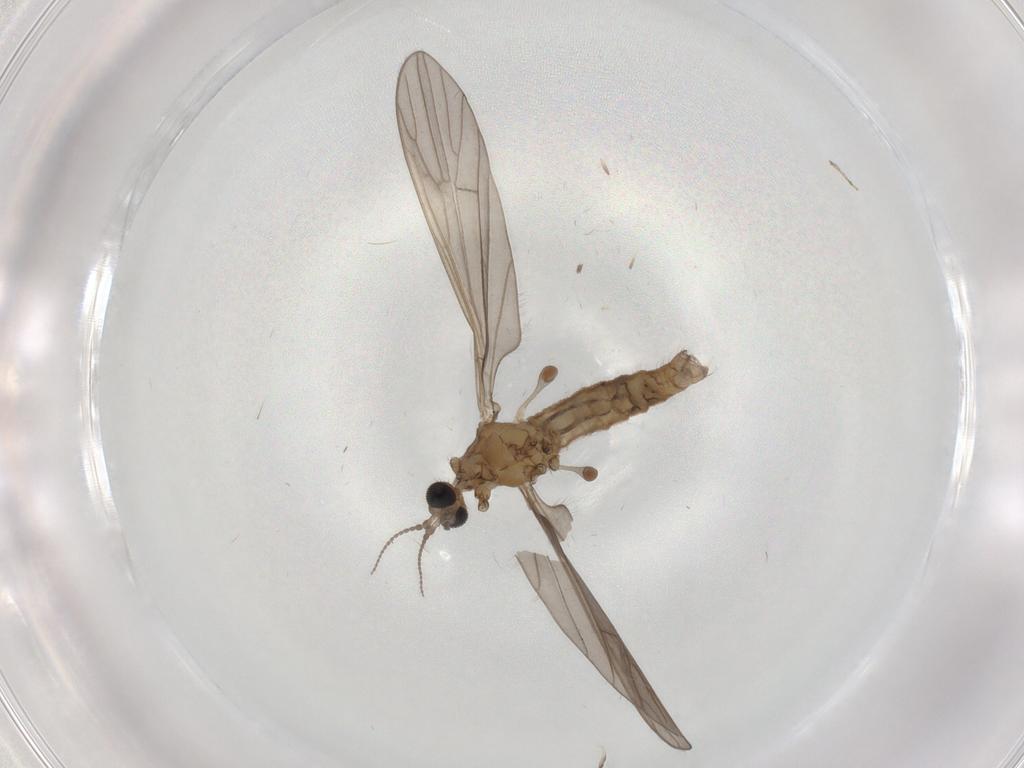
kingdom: Animalia
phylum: Arthropoda
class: Insecta
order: Diptera
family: Limoniidae
